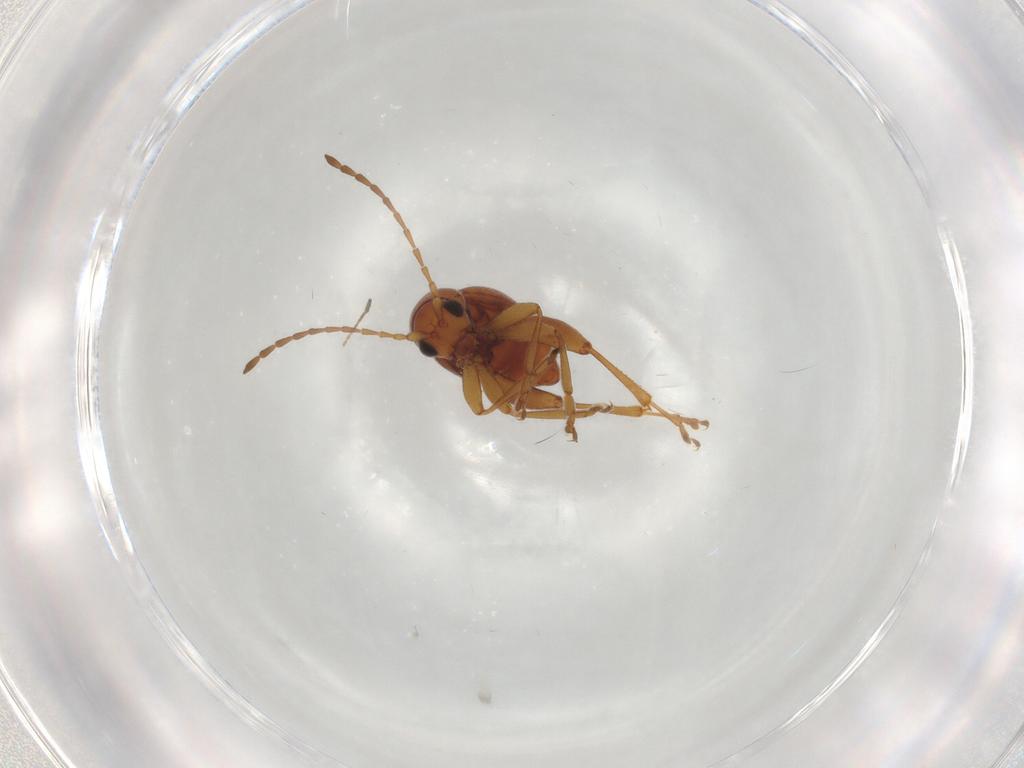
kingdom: Animalia
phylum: Arthropoda
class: Insecta
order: Coleoptera
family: Chrysomelidae
